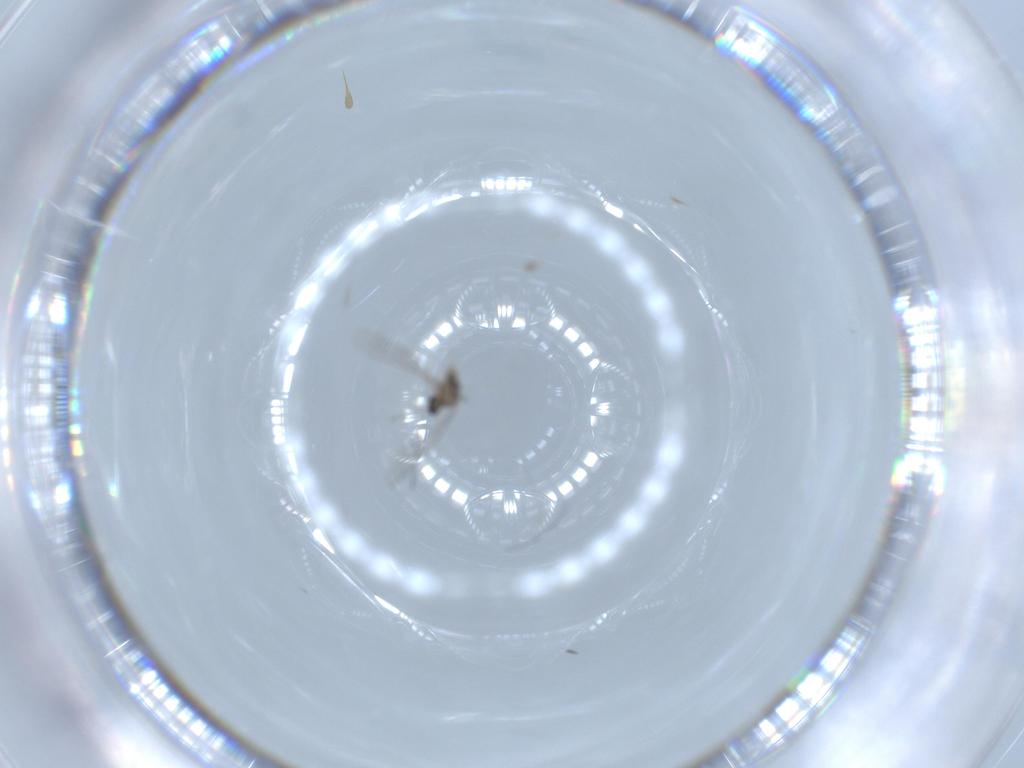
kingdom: Animalia
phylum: Arthropoda
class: Insecta
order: Diptera
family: Cecidomyiidae
